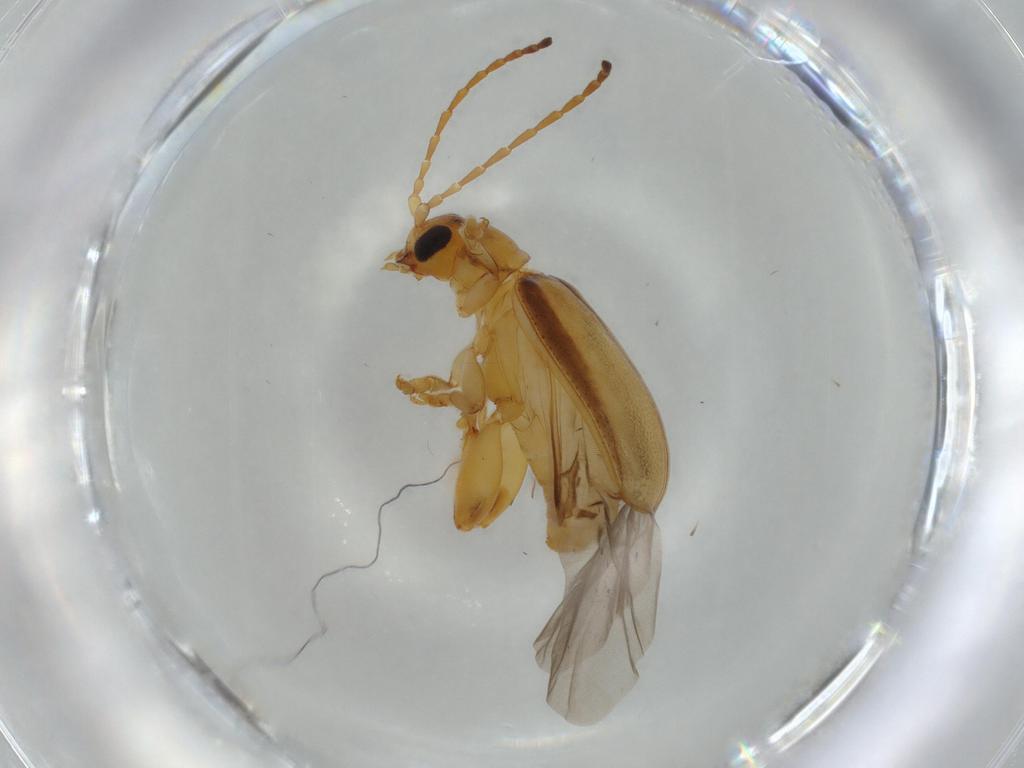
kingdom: Animalia
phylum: Arthropoda
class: Insecta
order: Coleoptera
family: Chrysomelidae
